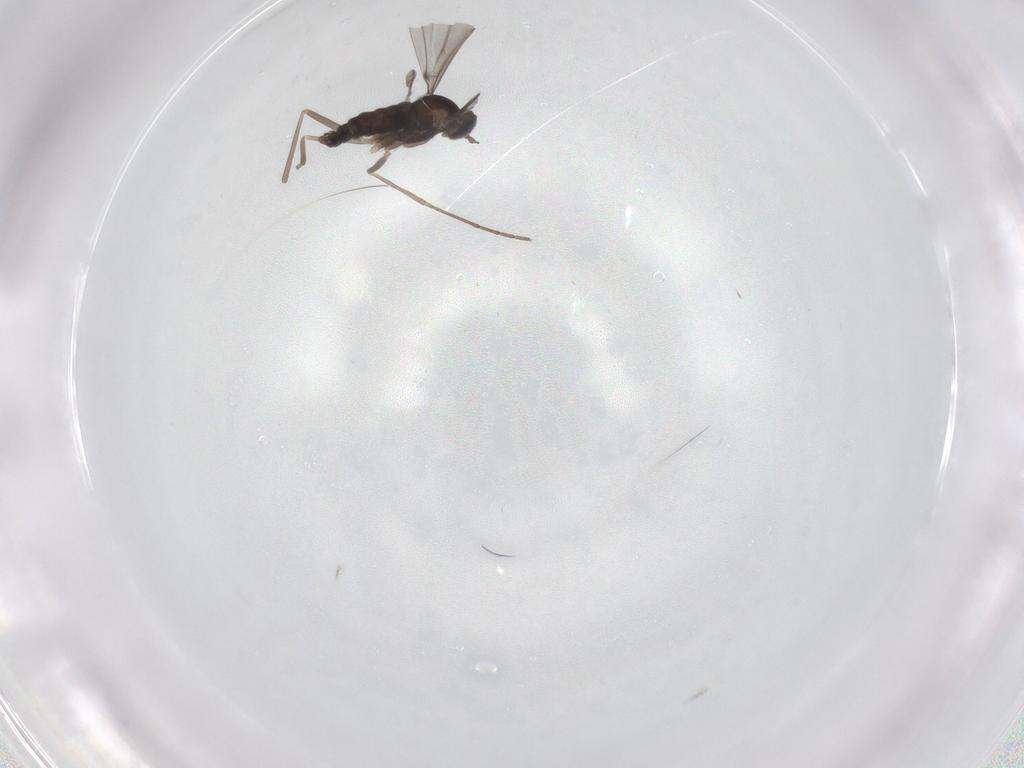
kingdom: Animalia
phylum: Arthropoda
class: Insecta
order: Diptera
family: Chironomidae
